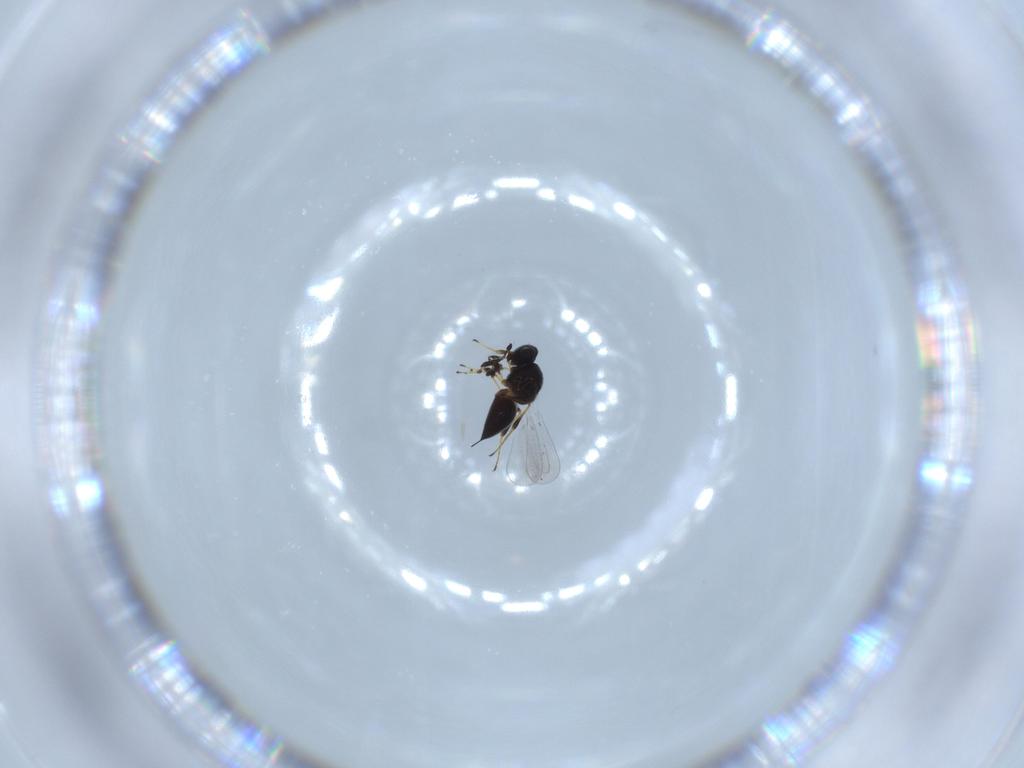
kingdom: Animalia
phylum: Arthropoda
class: Insecta
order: Hymenoptera
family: Platygastridae
